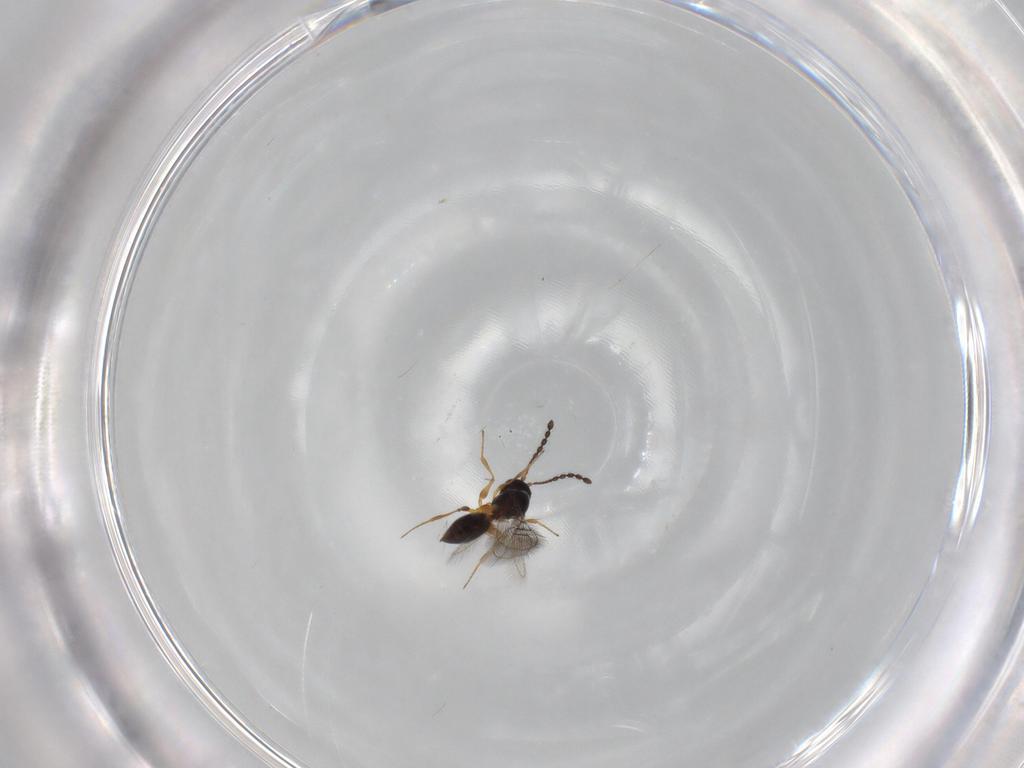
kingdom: Animalia
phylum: Arthropoda
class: Insecta
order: Hymenoptera
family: Figitidae
